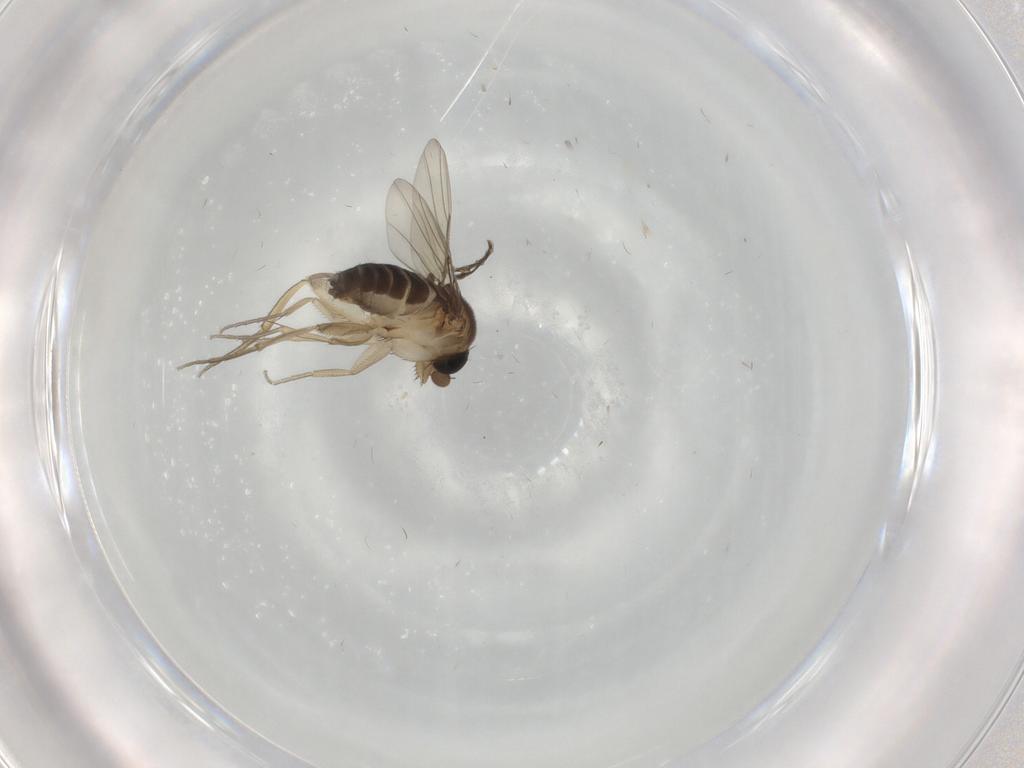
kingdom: Animalia
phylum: Arthropoda
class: Insecta
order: Diptera
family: Phoridae
